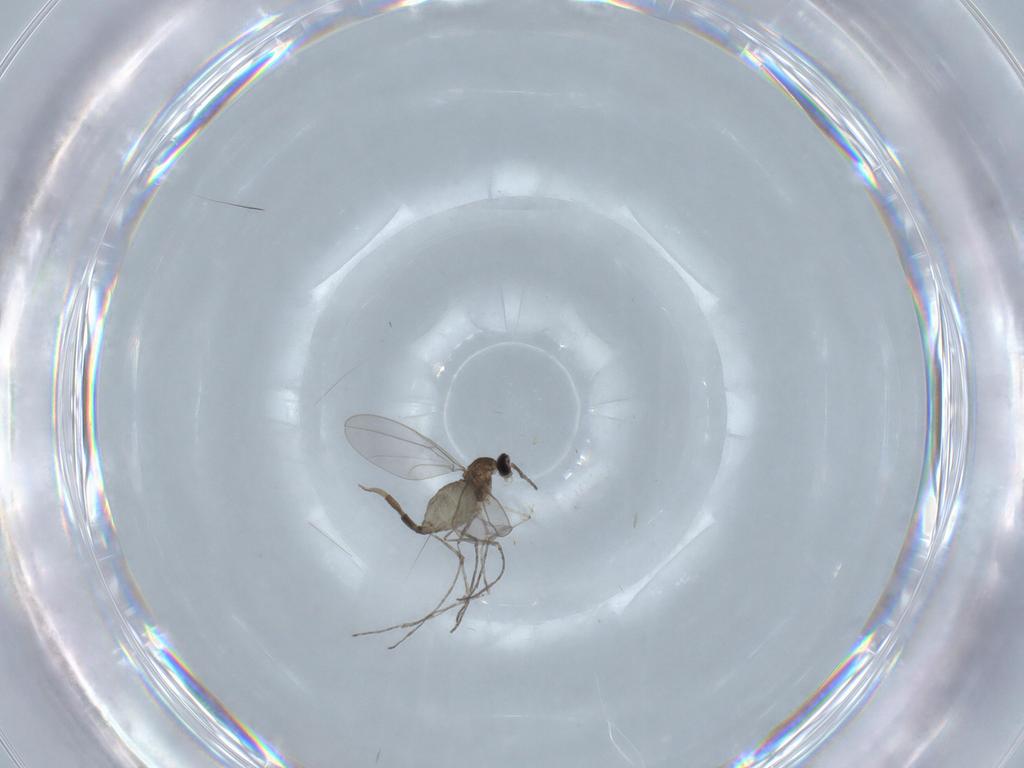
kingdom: Animalia
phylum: Arthropoda
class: Insecta
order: Diptera
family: Cecidomyiidae
